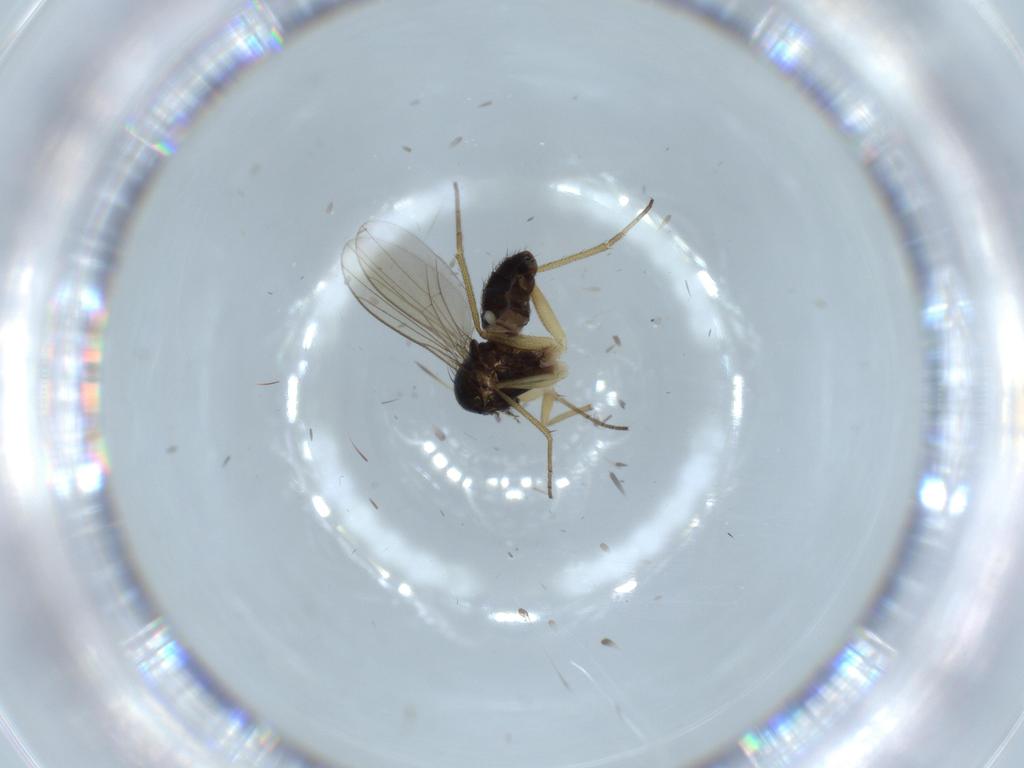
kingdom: Animalia
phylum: Arthropoda
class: Insecta
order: Diptera
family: Dolichopodidae
